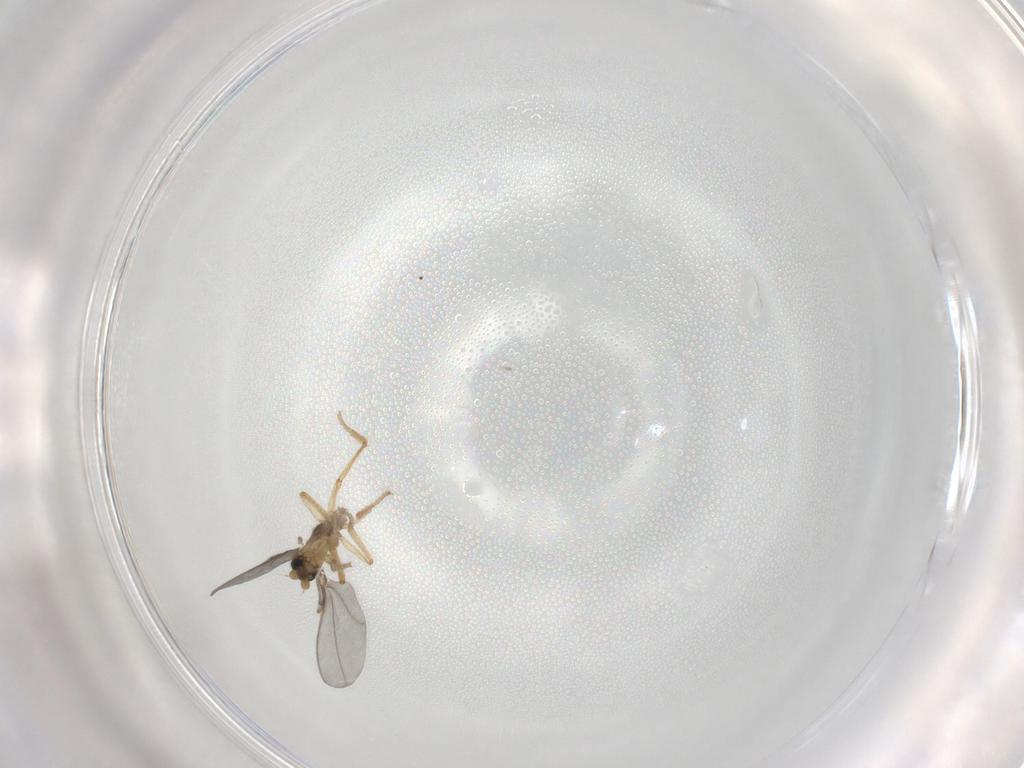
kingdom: Animalia
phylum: Arthropoda
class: Insecta
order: Diptera
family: Phoridae
